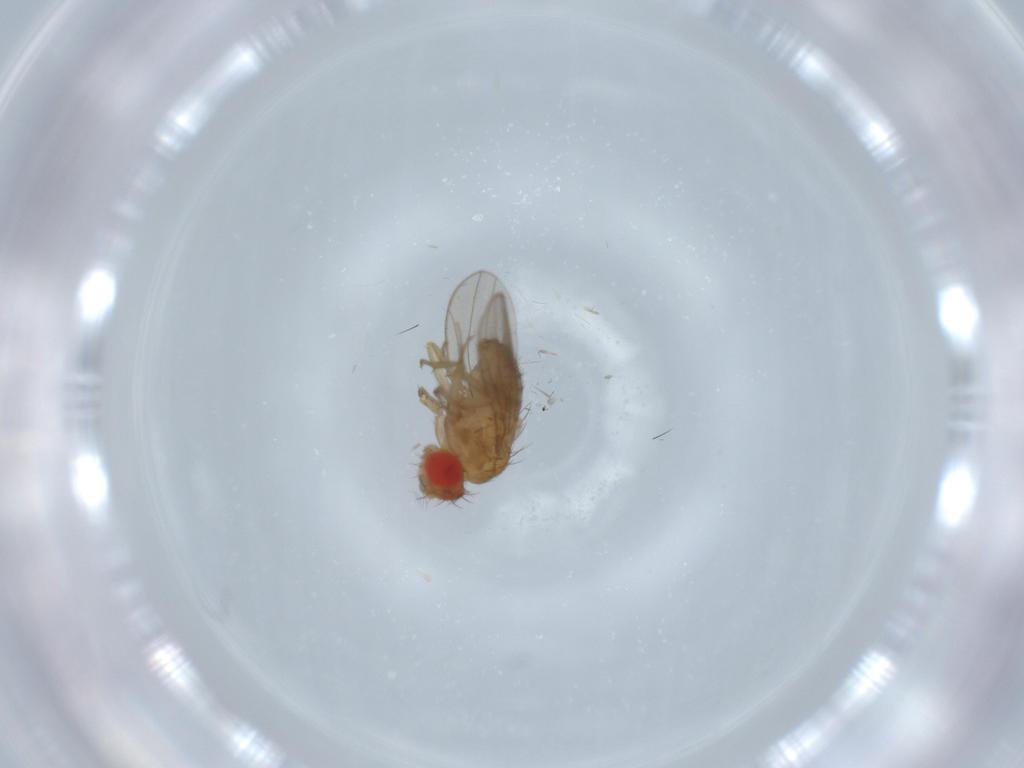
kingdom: Animalia
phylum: Arthropoda
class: Insecta
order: Diptera
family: Drosophilidae
